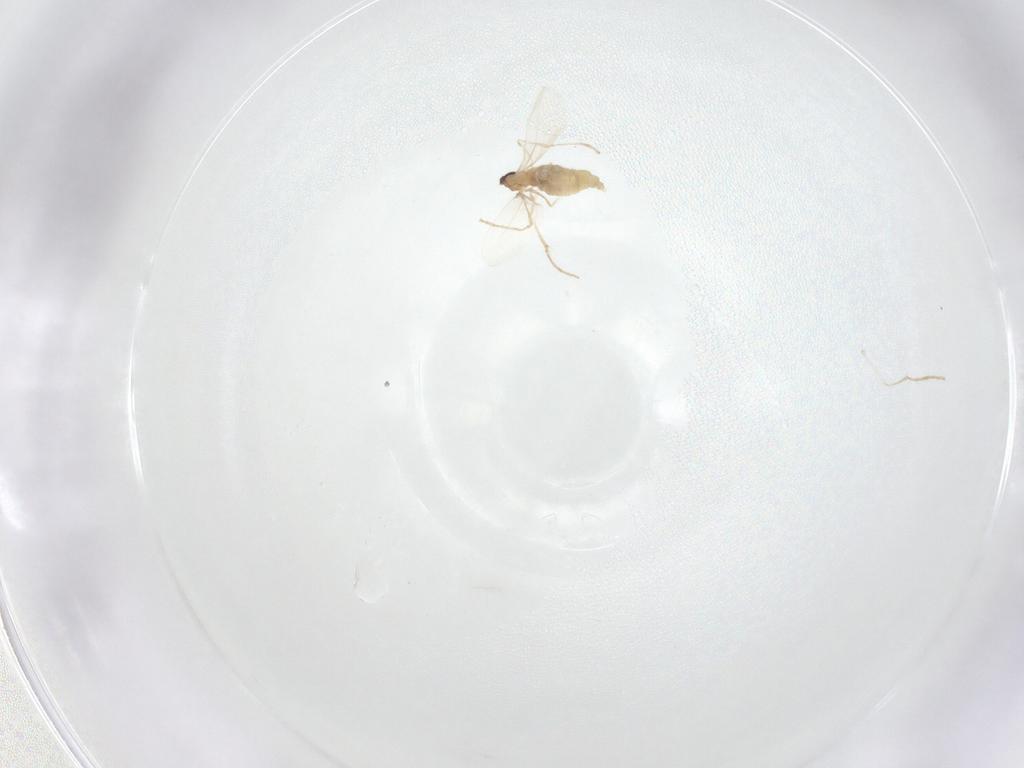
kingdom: Animalia
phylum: Arthropoda
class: Insecta
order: Diptera
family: Cecidomyiidae
